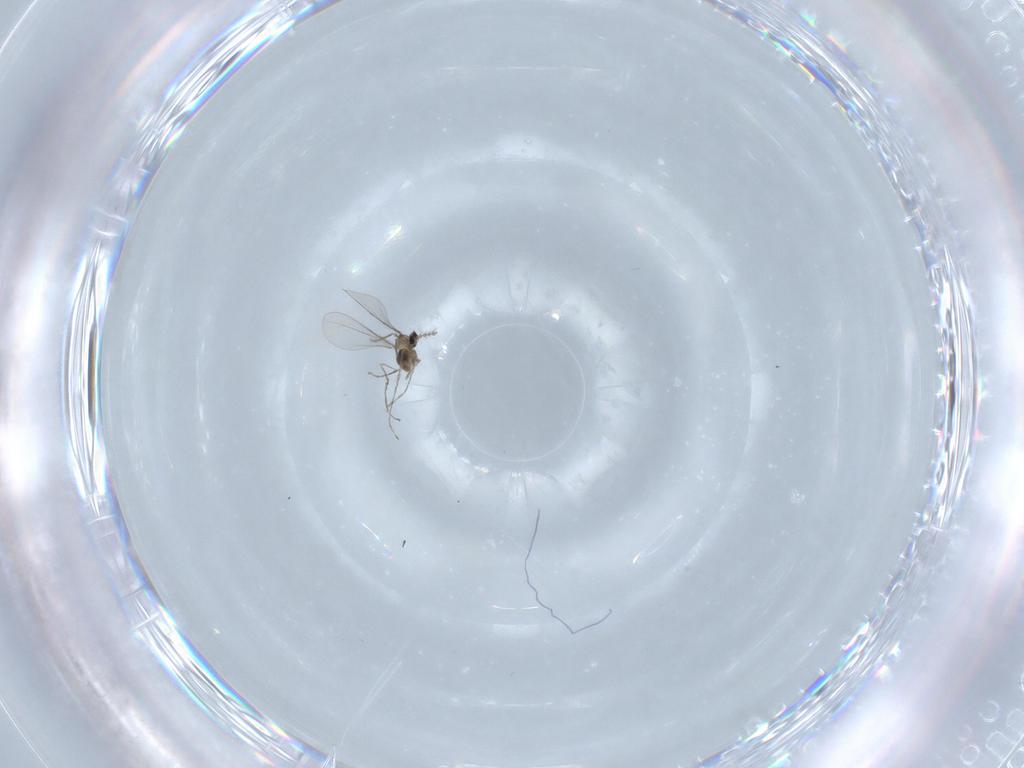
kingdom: Animalia
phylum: Arthropoda
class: Insecta
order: Diptera
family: Cecidomyiidae
